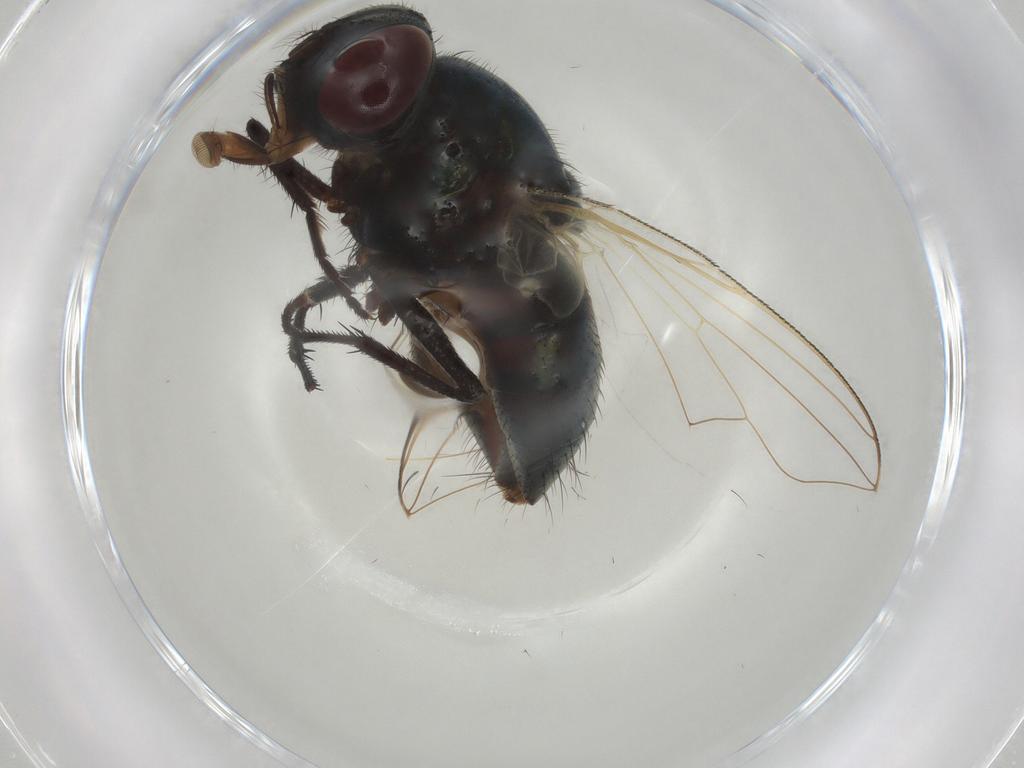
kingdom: Animalia
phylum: Arthropoda
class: Insecta
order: Diptera
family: Muscidae
